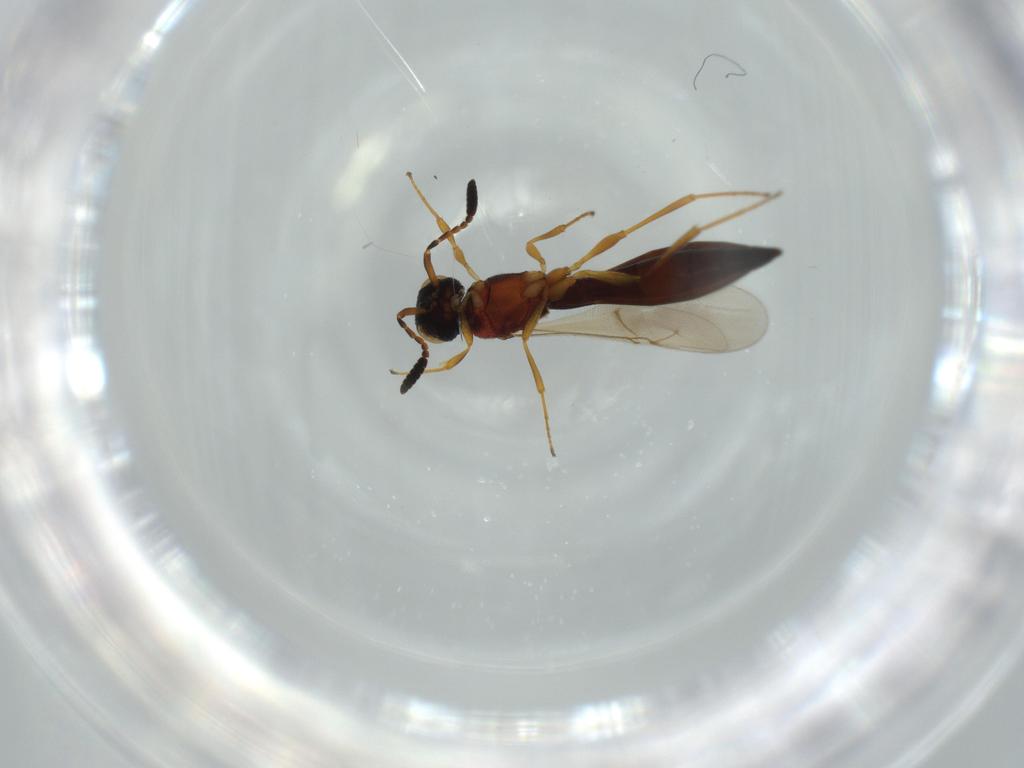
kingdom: Animalia
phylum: Arthropoda
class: Insecta
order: Hymenoptera
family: Scelionidae
